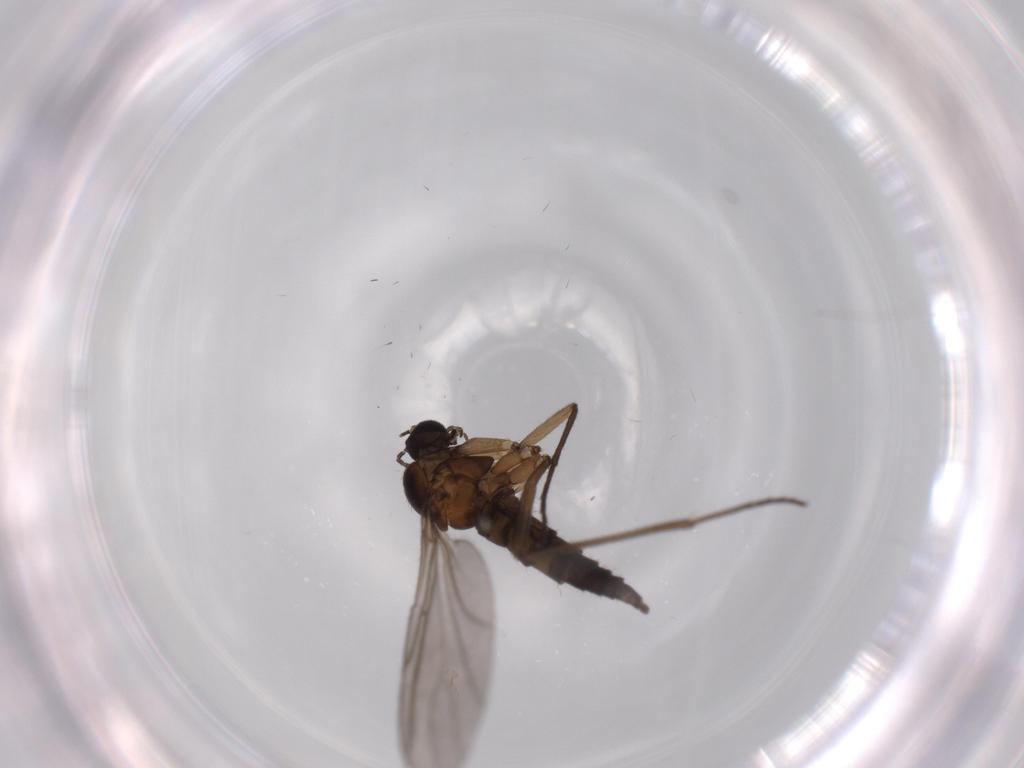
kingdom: Animalia
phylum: Arthropoda
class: Insecta
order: Diptera
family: Sciaridae
